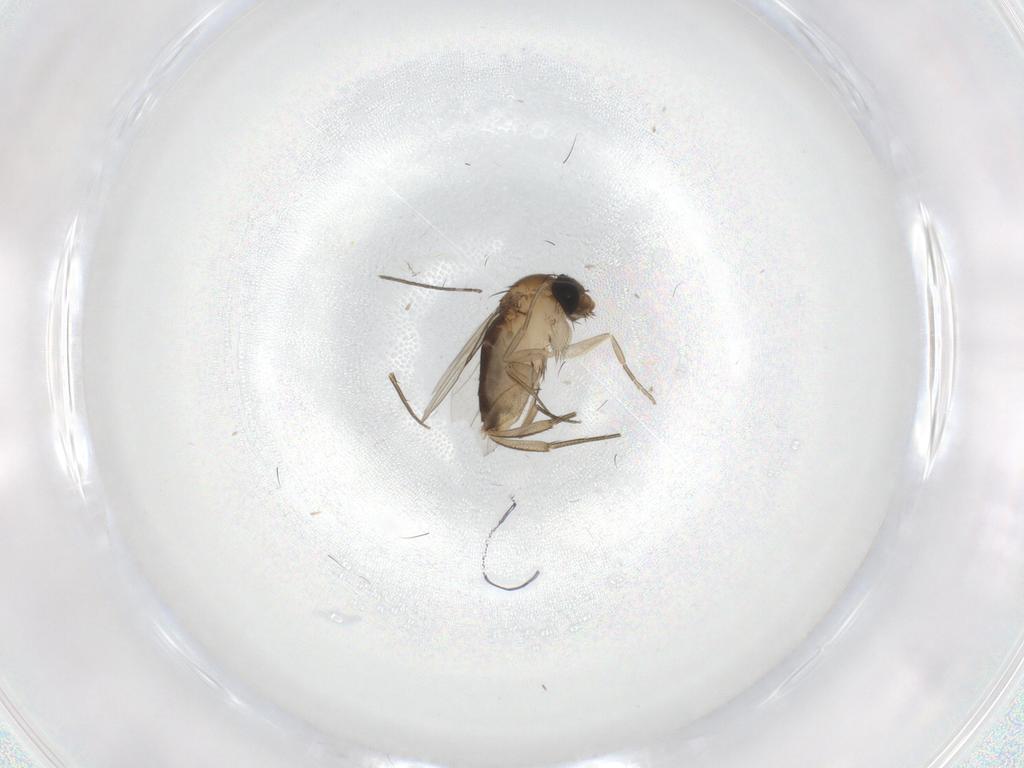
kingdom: Animalia
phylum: Arthropoda
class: Insecta
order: Diptera
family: Phoridae
